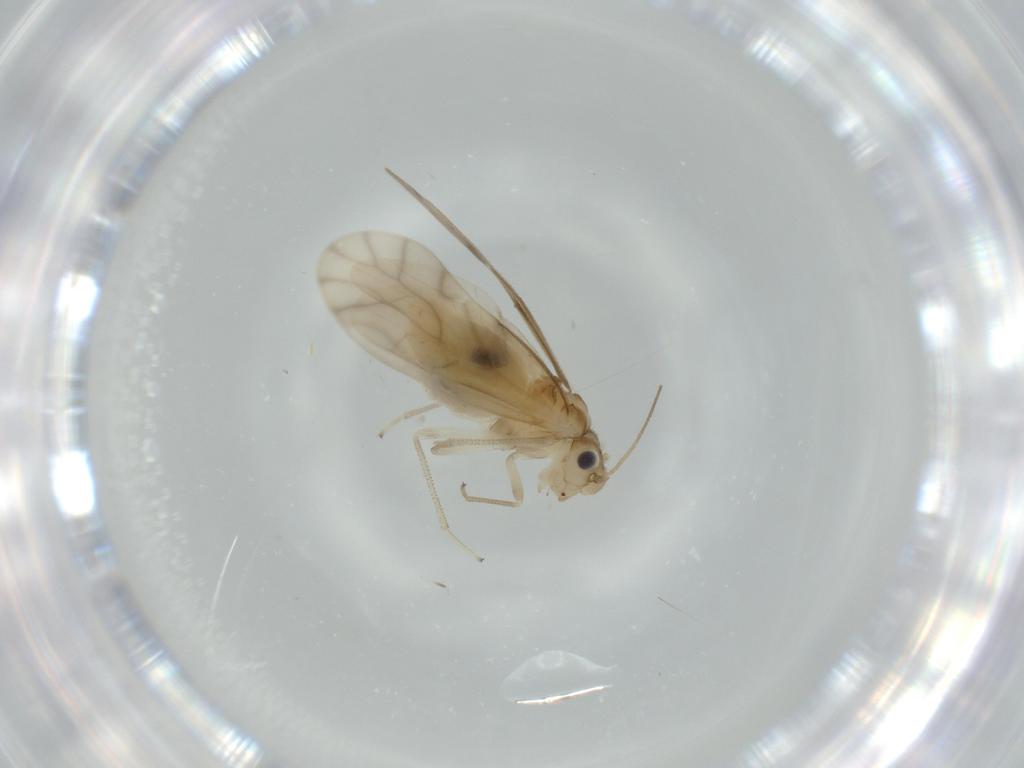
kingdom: Animalia
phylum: Arthropoda
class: Insecta
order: Psocodea
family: Caeciliusidae
